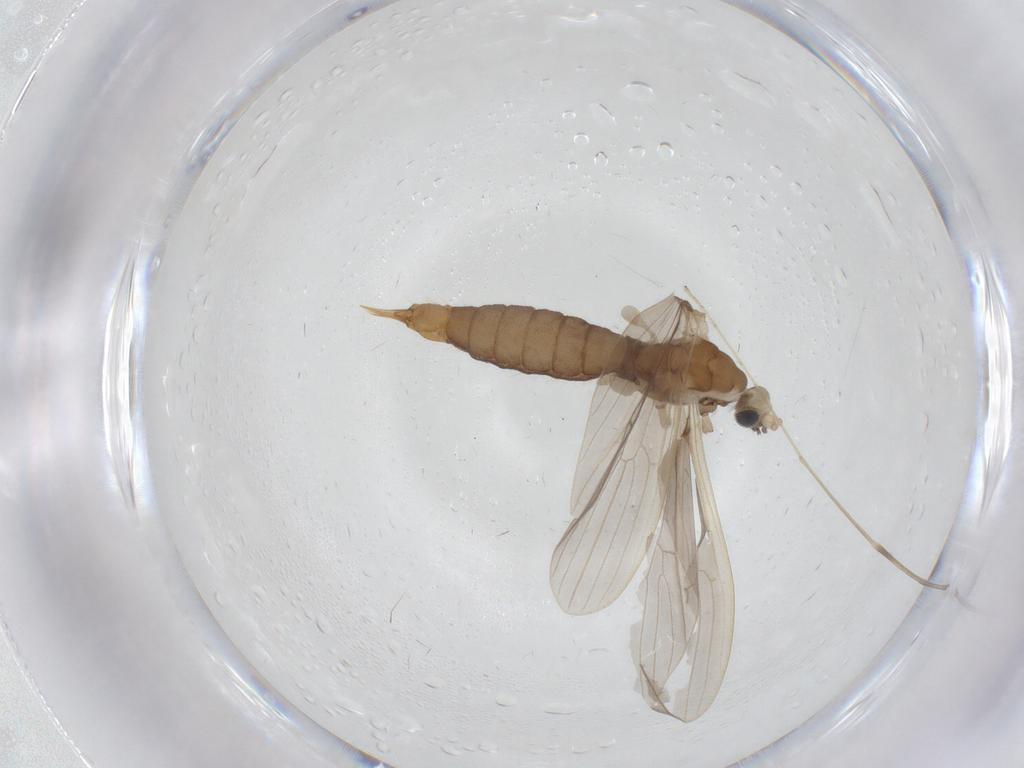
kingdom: Animalia
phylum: Arthropoda
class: Insecta
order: Diptera
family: Limoniidae
